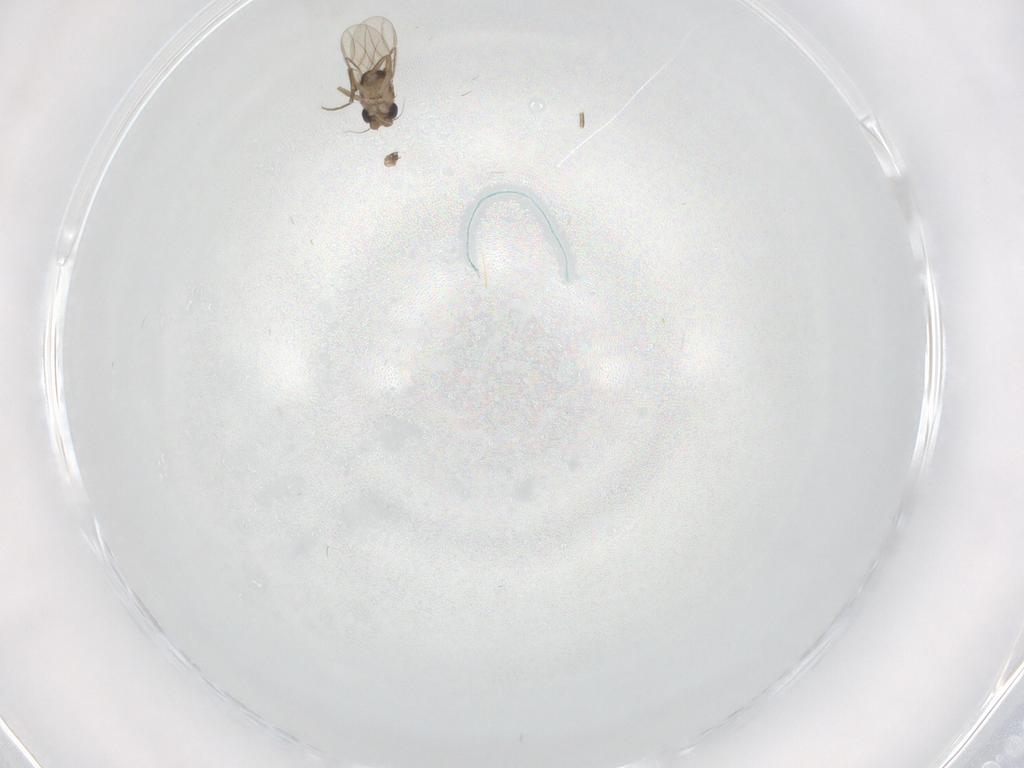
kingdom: Animalia
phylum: Arthropoda
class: Insecta
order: Diptera
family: Phoridae
